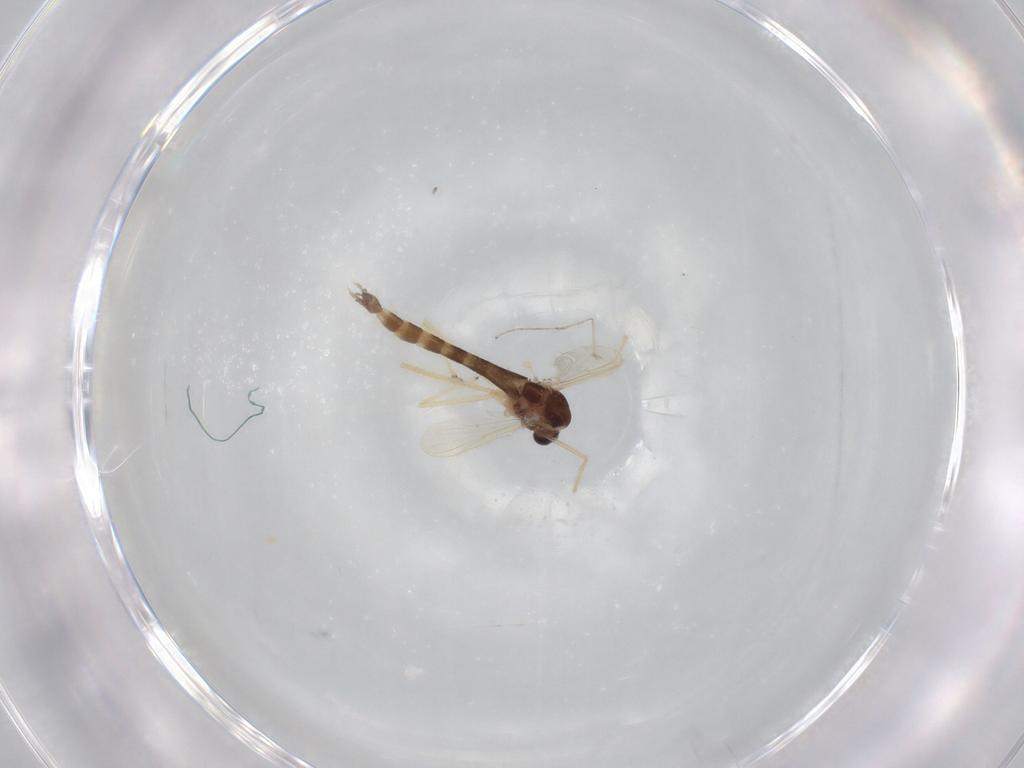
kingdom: Animalia
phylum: Arthropoda
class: Insecta
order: Diptera
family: Chironomidae
